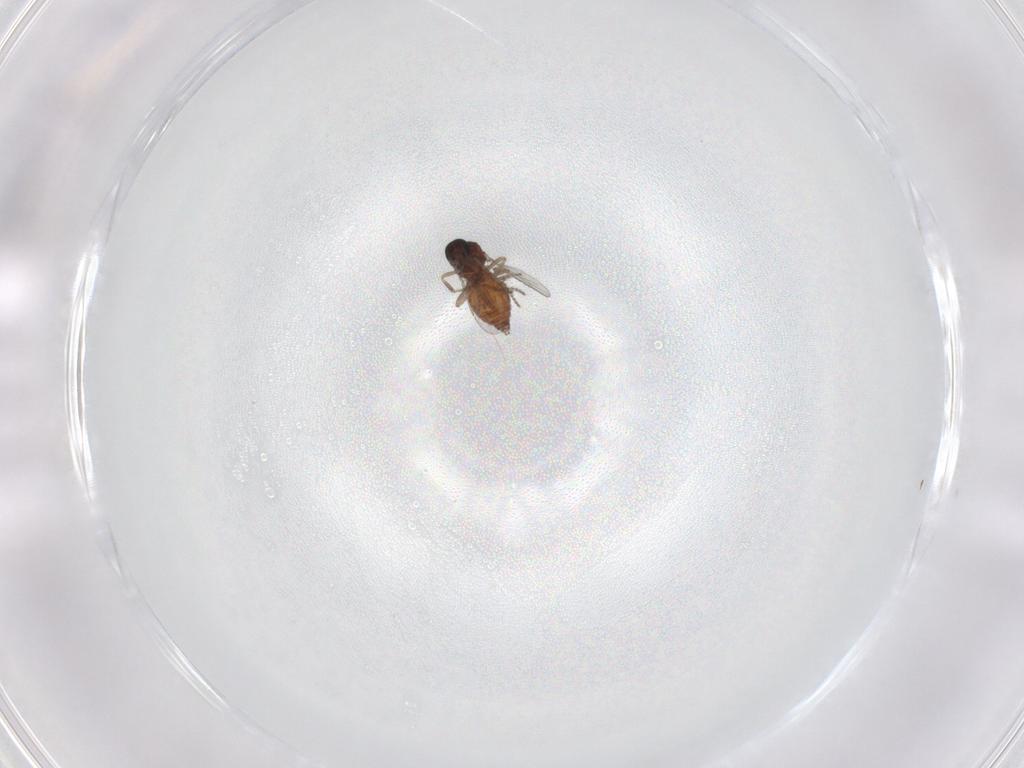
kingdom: Animalia
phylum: Arthropoda
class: Insecta
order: Diptera
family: Ceratopogonidae
